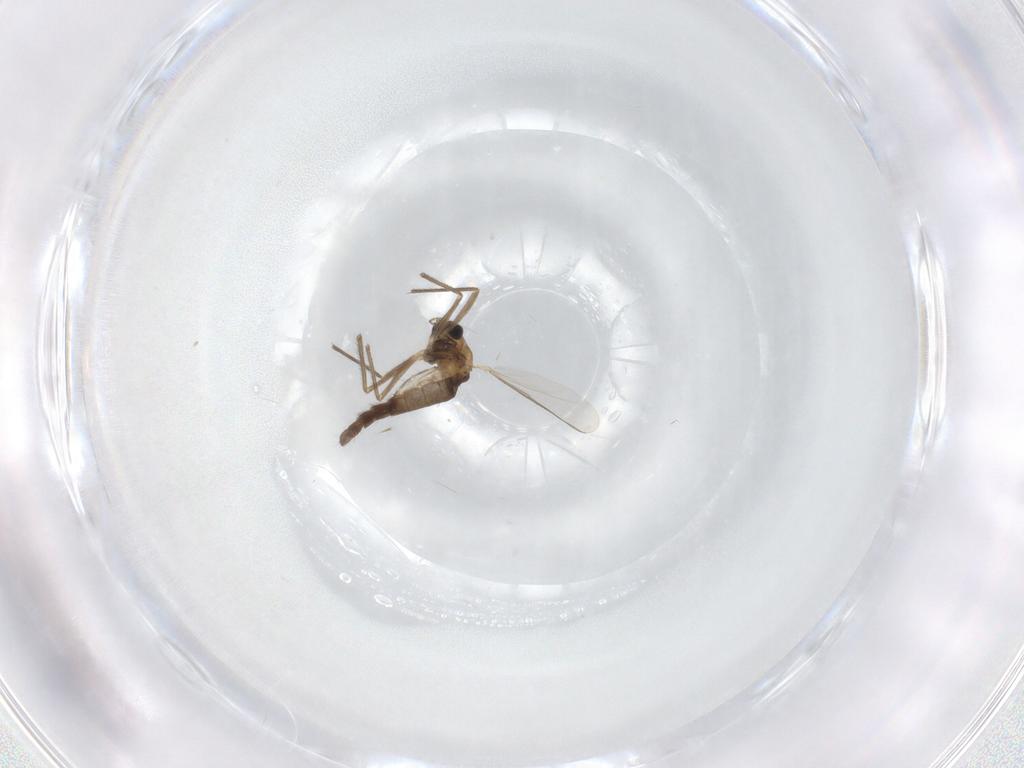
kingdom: Animalia
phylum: Arthropoda
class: Insecta
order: Diptera
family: Chironomidae
